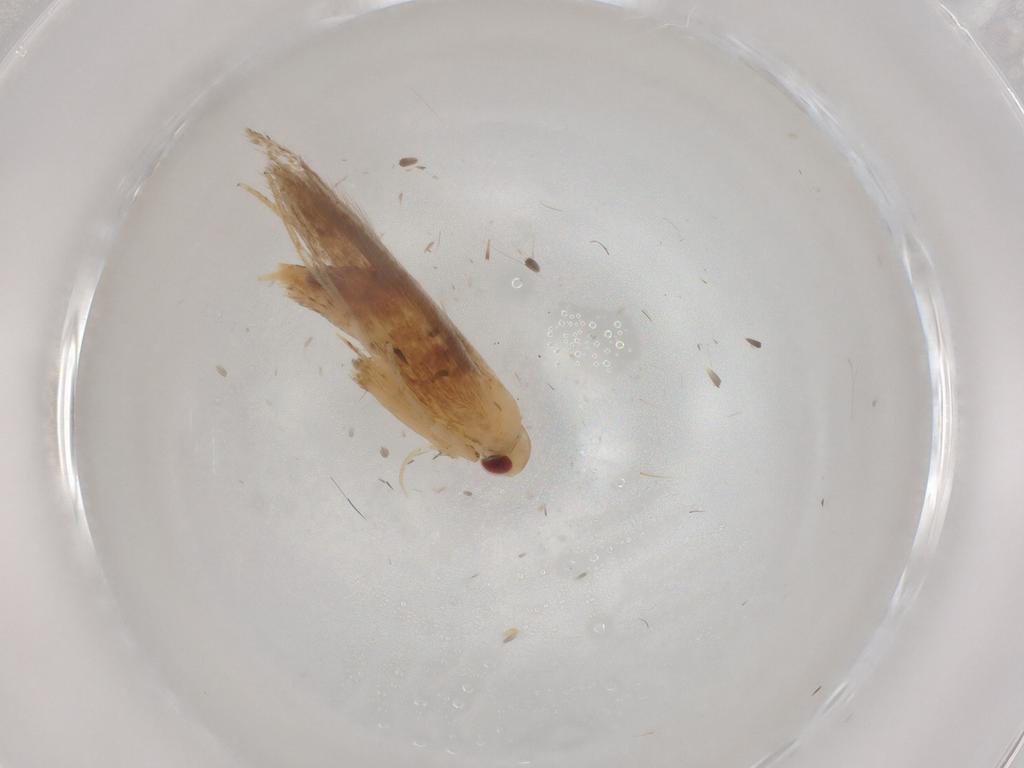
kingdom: Animalia
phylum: Arthropoda
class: Insecta
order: Lepidoptera
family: Cosmopterigidae
